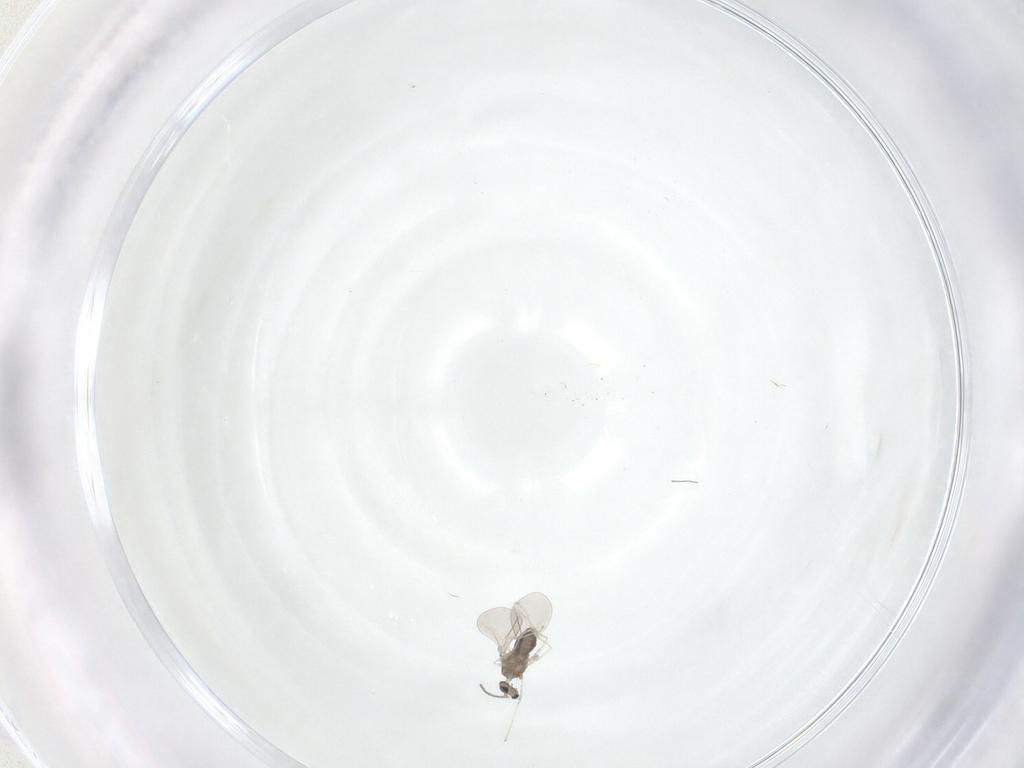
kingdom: Animalia
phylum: Arthropoda
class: Insecta
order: Diptera
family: Cecidomyiidae
